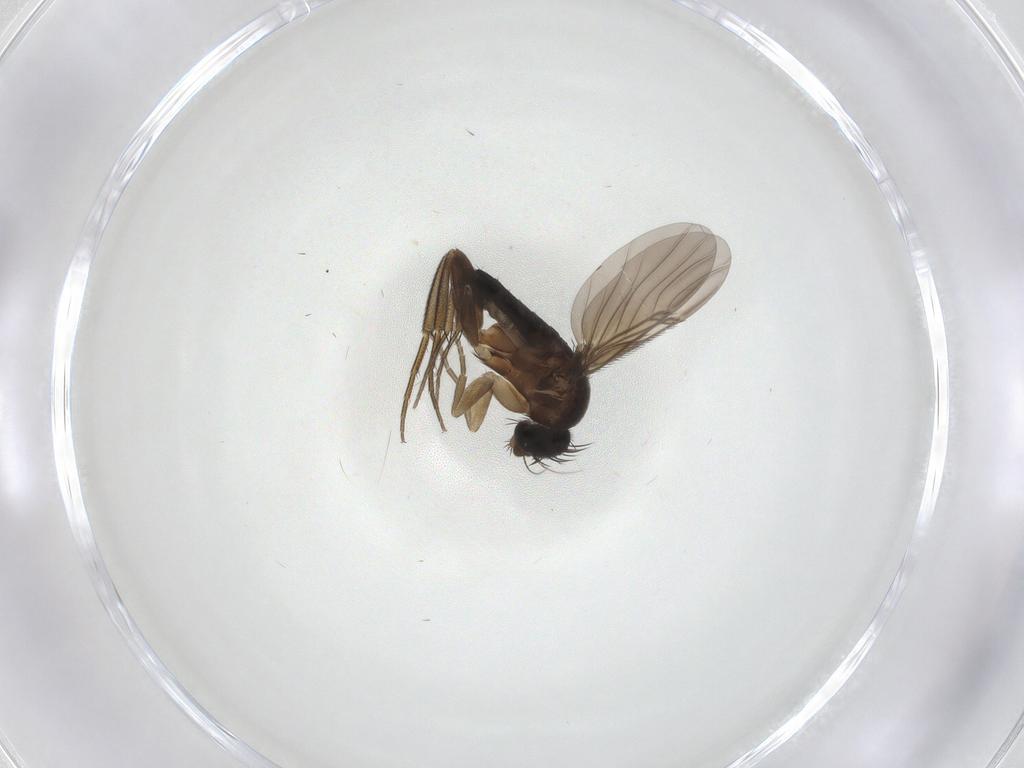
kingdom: Animalia
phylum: Arthropoda
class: Insecta
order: Diptera
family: Phoridae
